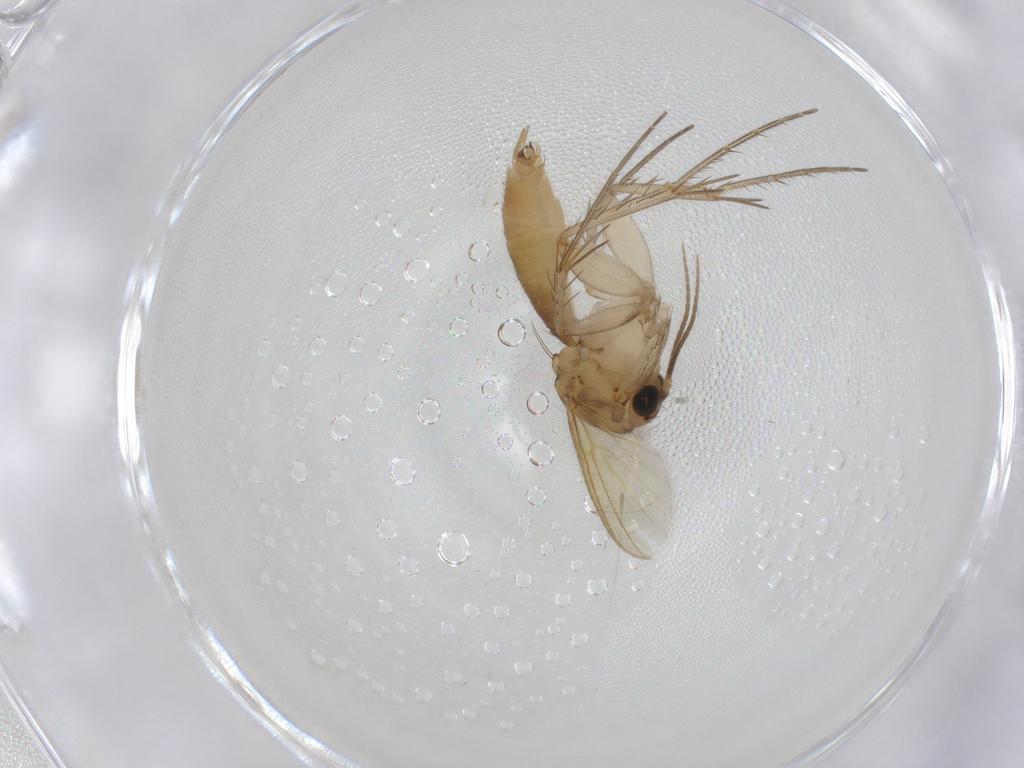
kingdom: Animalia
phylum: Arthropoda
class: Insecta
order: Diptera
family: Mycetophilidae
